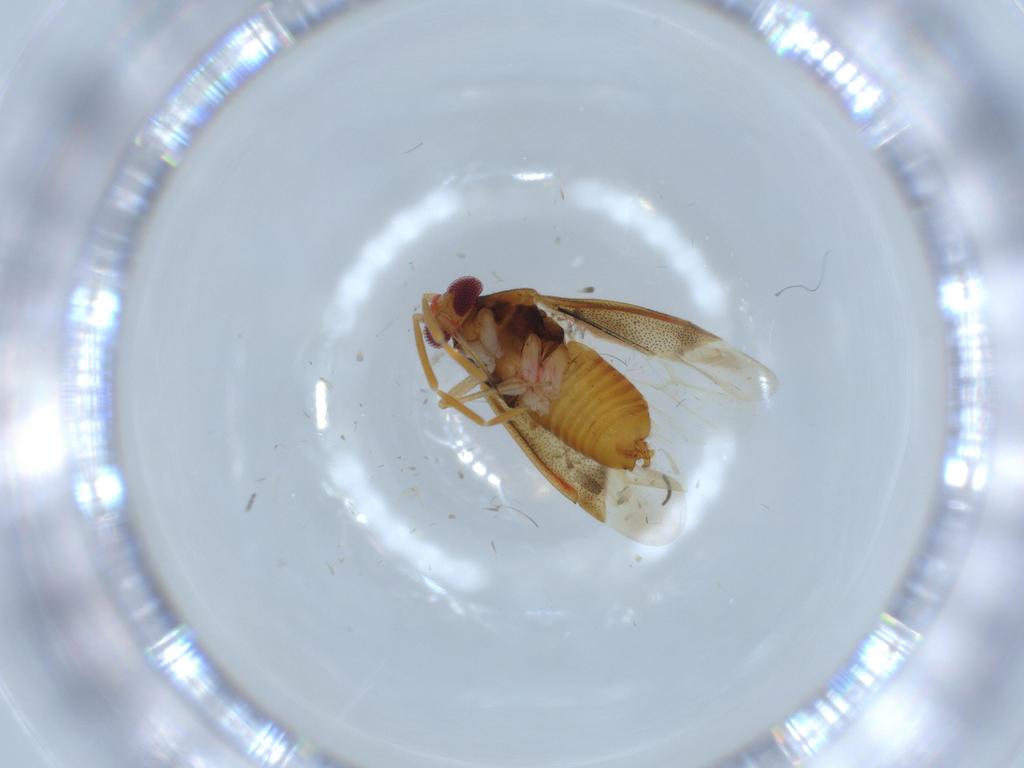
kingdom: Animalia
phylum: Arthropoda
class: Insecta
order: Hemiptera
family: Miridae
